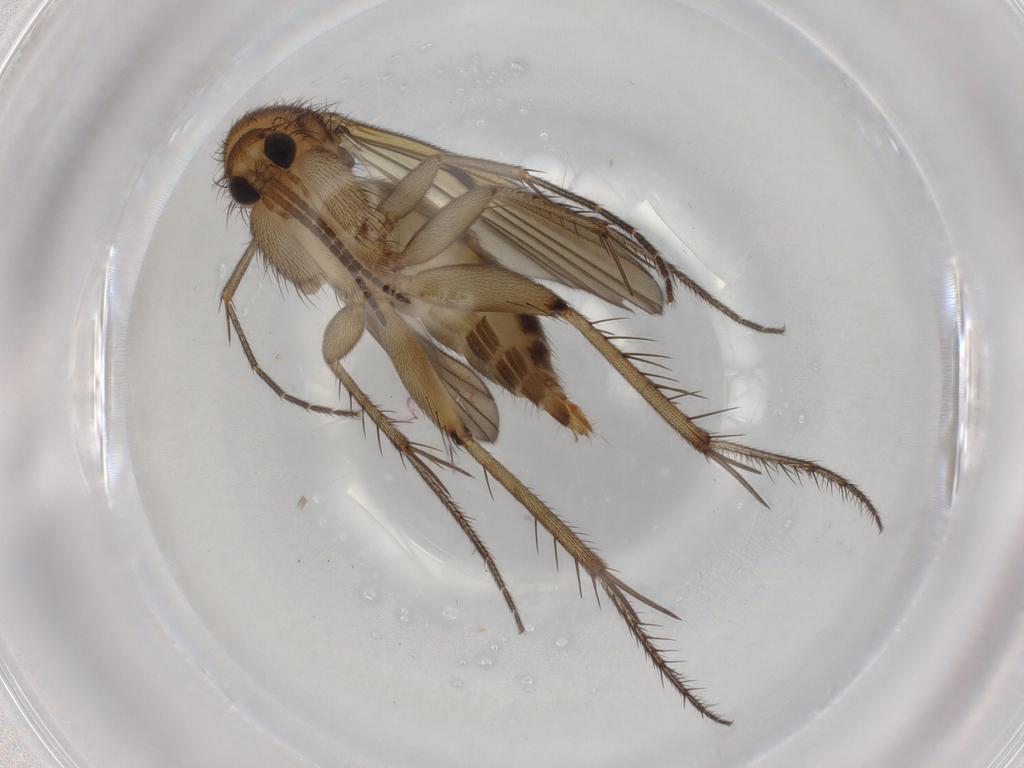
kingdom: Animalia
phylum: Arthropoda
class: Insecta
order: Diptera
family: Mycetophilidae
